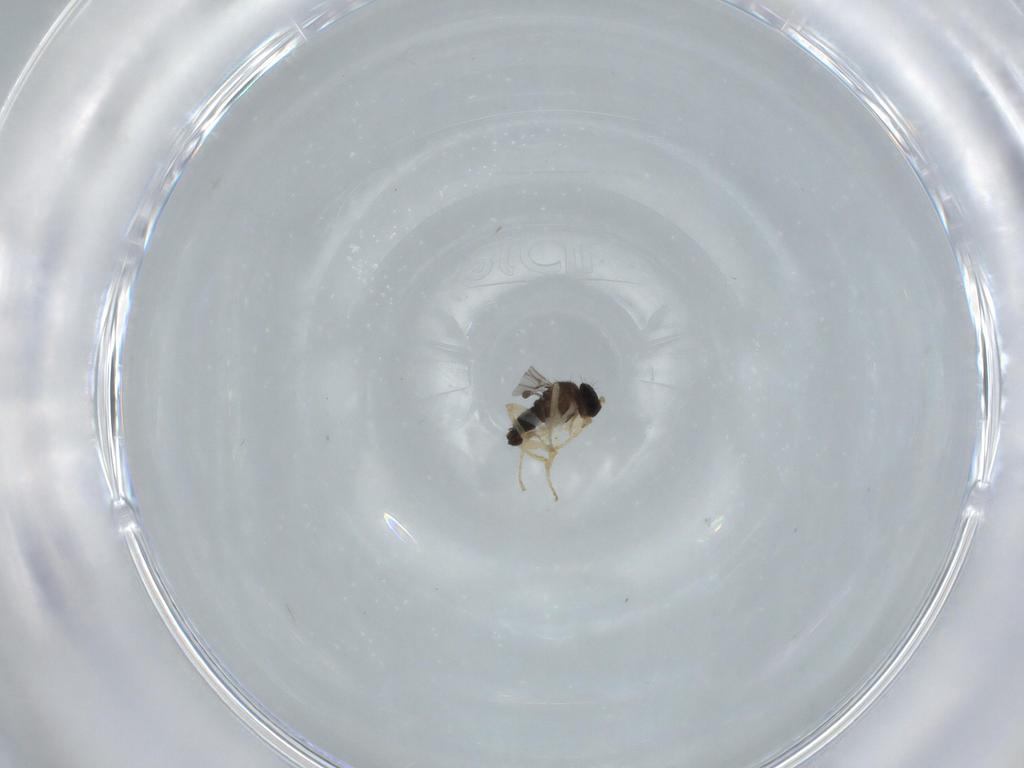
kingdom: Animalia
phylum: Arthropoda
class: Insecta
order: Diptera
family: Hybotidae
